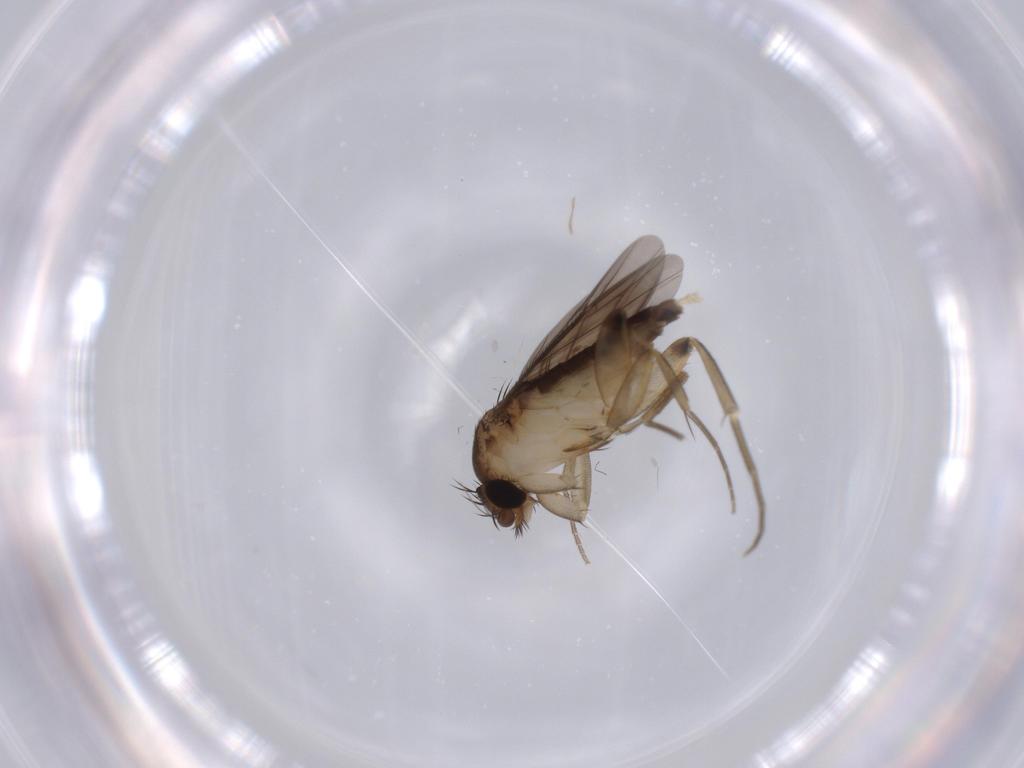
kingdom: Animalia
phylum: Arthropoda
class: Insecta
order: Diptera
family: Phoridae
